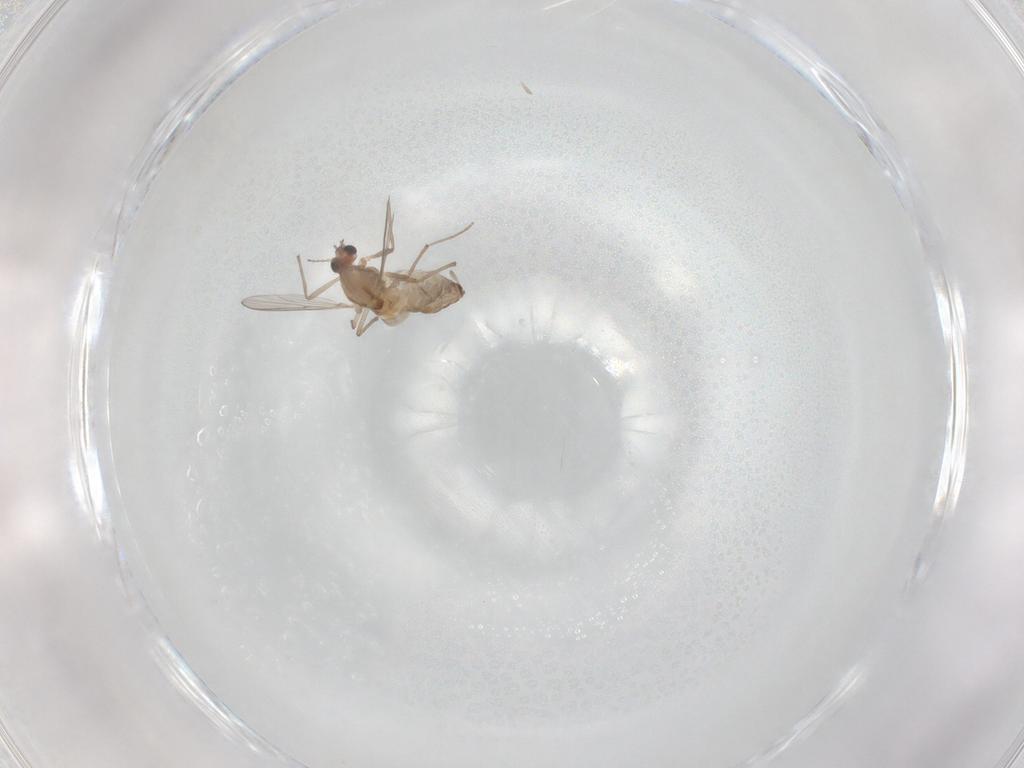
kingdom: Animalia
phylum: Arthropoda
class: Insecta
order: Diptera
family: Chironomidae
